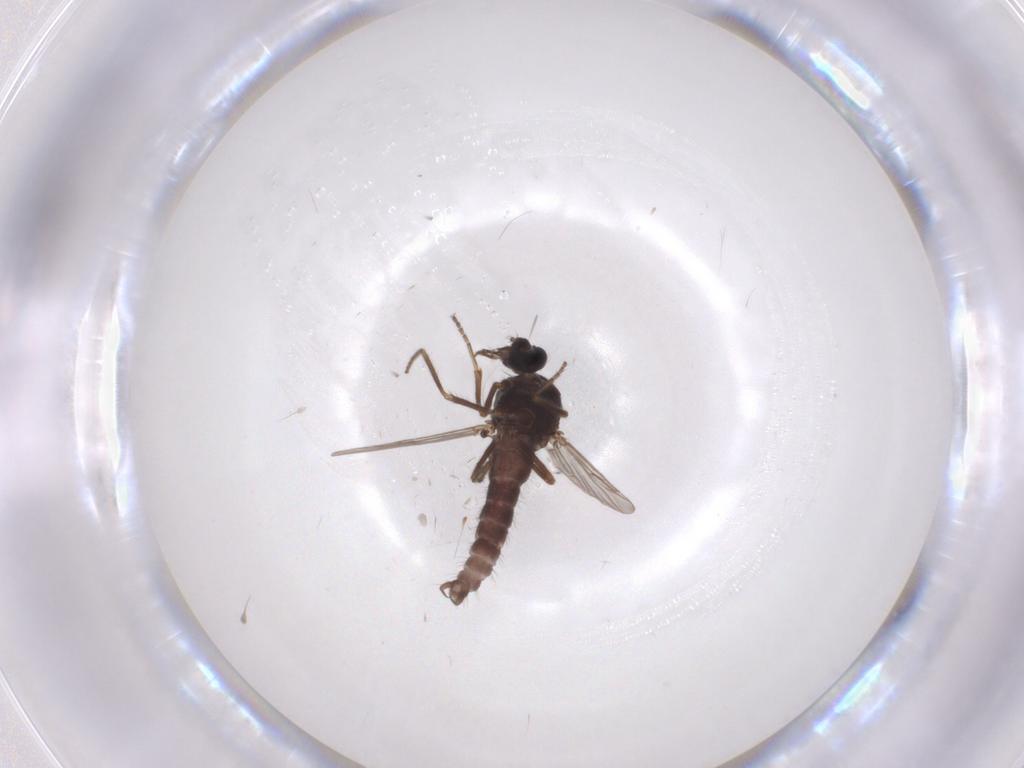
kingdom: Animalia
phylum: Arthropoda
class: Insecta
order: Diptera
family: Ceratopogonidae
